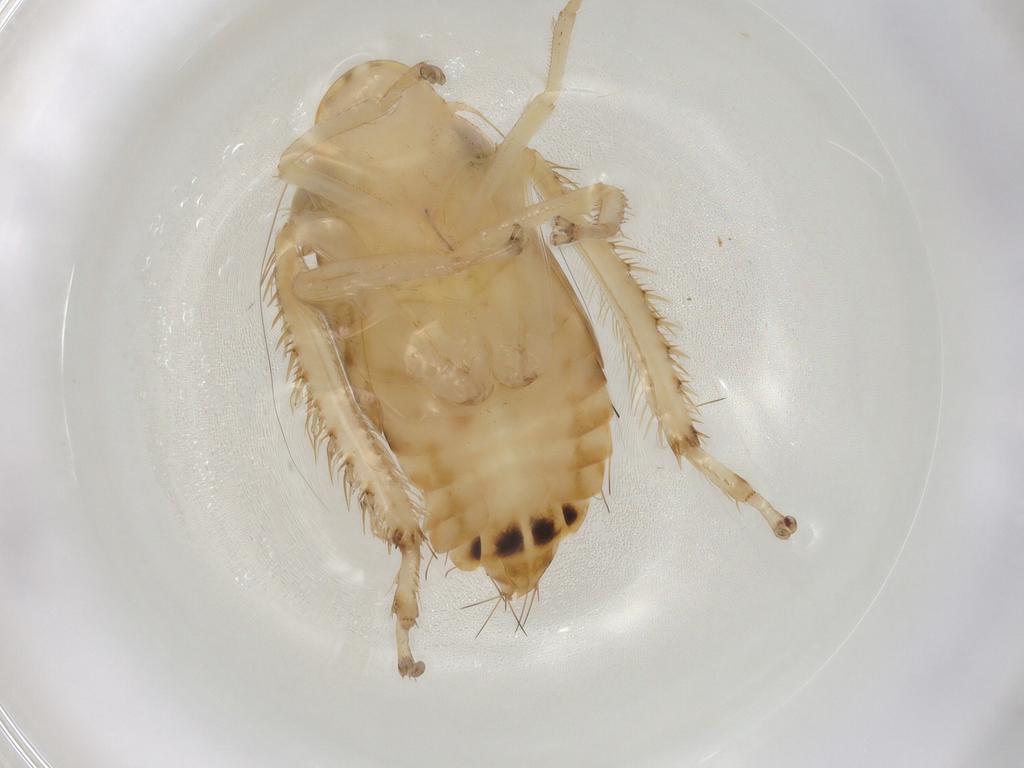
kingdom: Animalia
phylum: Arthropoda
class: Insecta
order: Hemiptera
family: Cicadellidae
